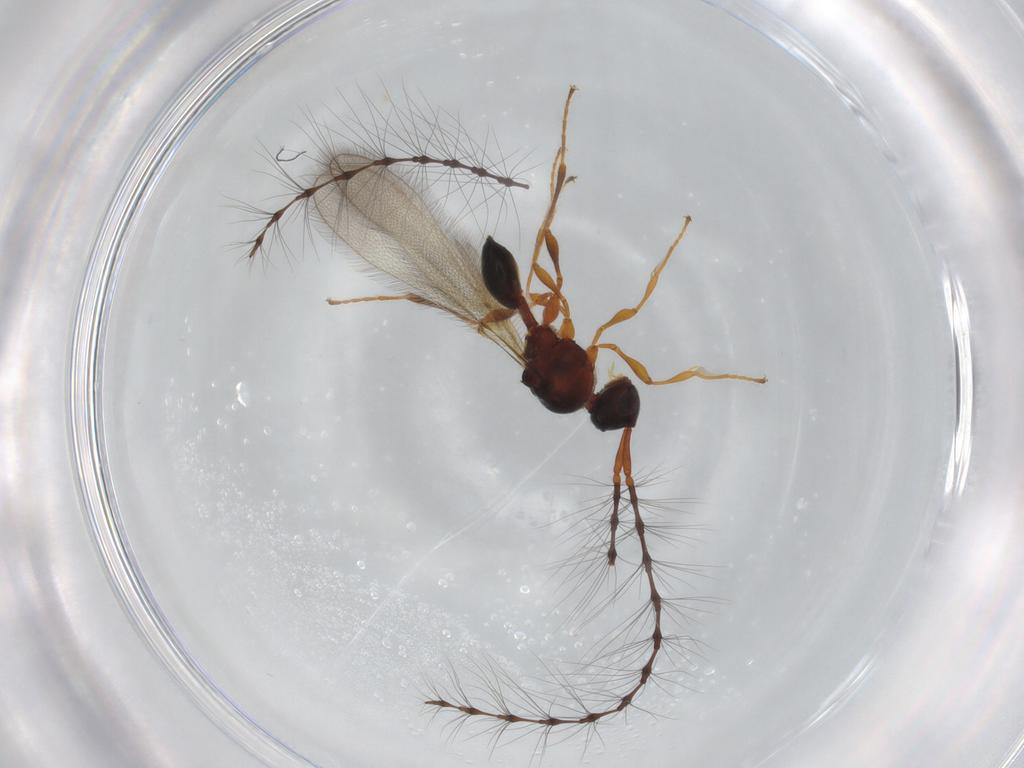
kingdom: Animalia
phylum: Arthropoda
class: Insecta
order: Hymenoptera
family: Diapriidae
